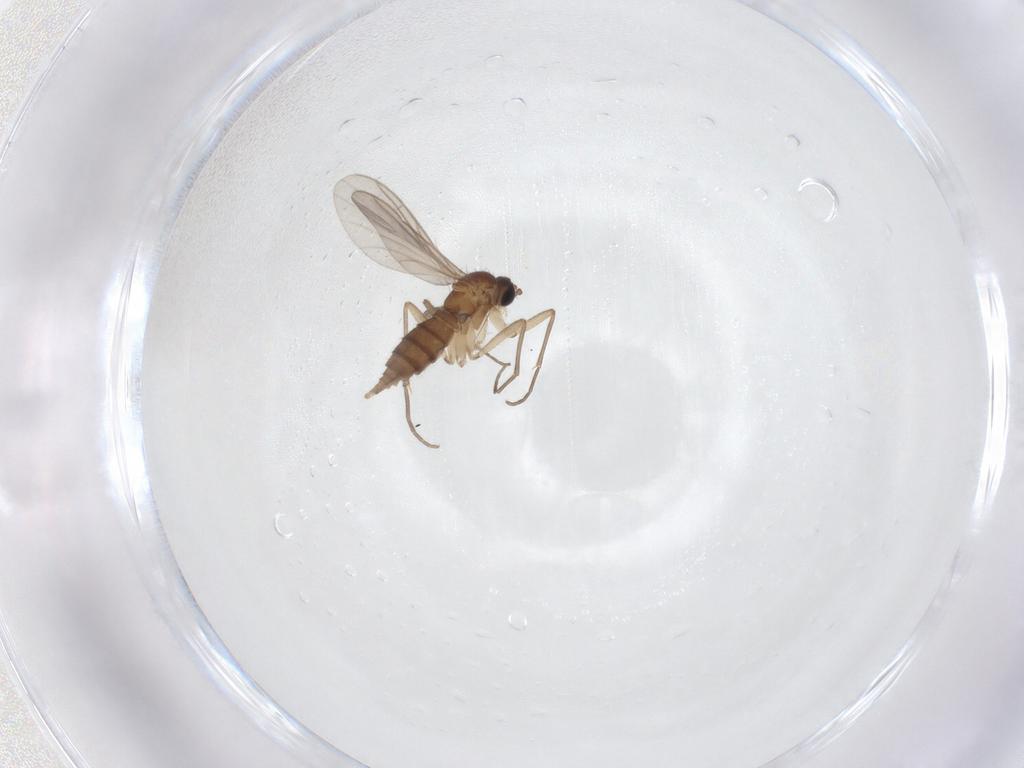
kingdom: Animalia
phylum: Arthropoda
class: Insecta
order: Diptera
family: Sciaridae
